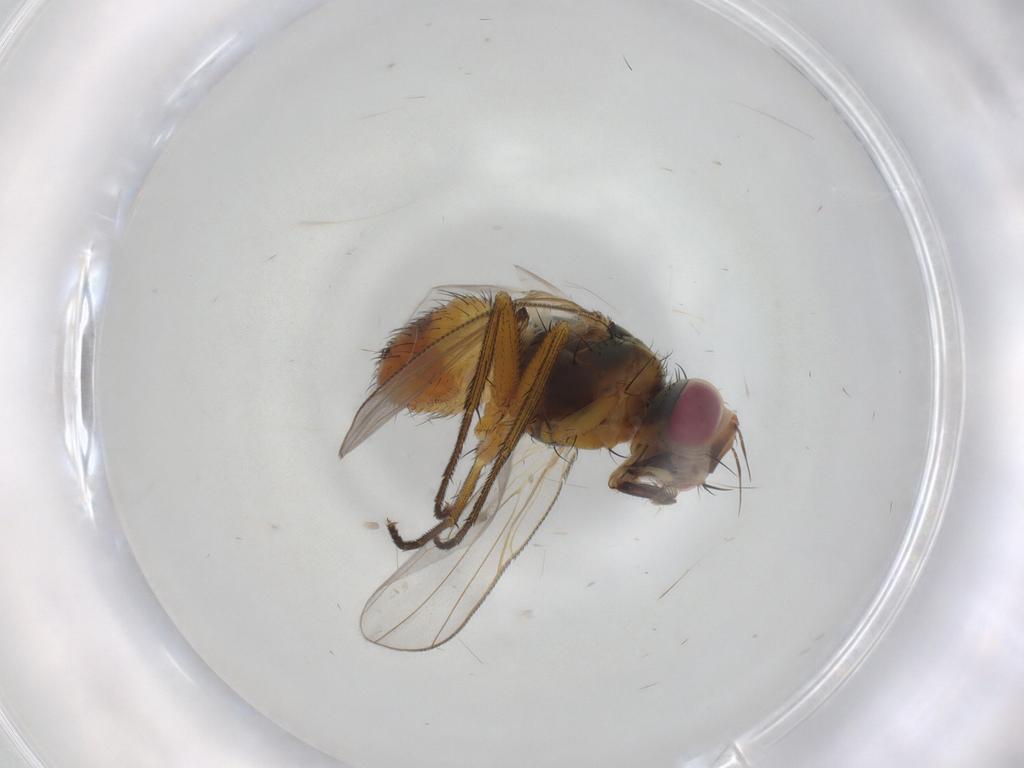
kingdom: Animalia
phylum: Arthropoda
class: Insecta
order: Diptera
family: Muscidae
